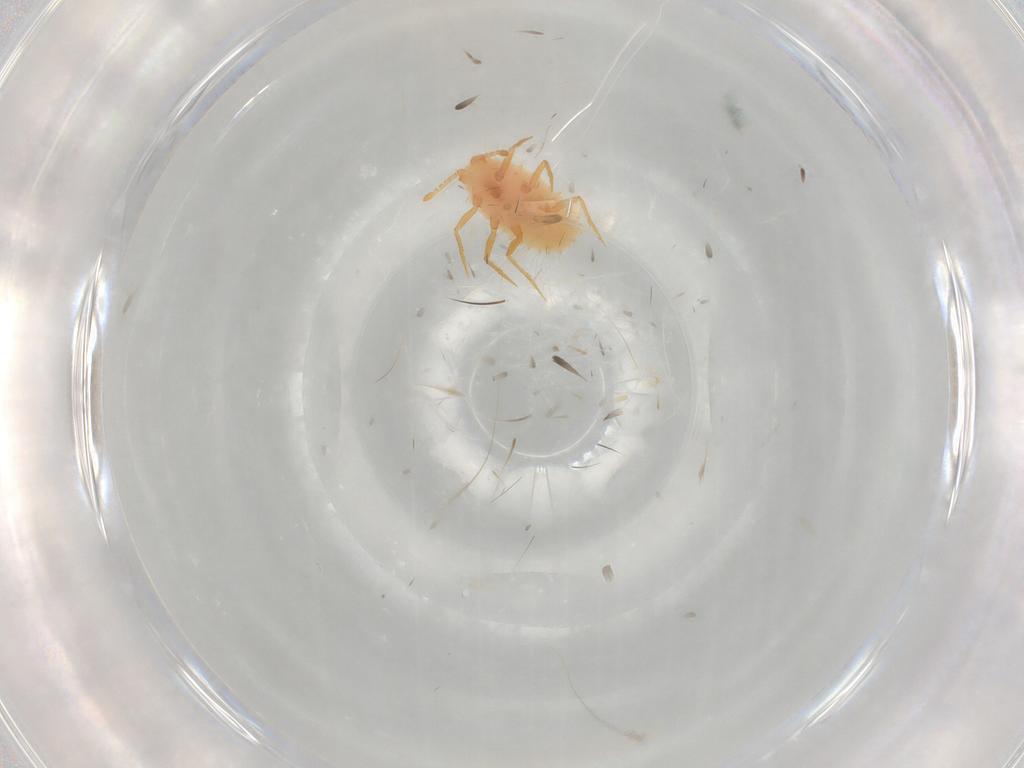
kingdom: Animalia
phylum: Arthropoda
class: Insecta
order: Hemiptera
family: Cicadellidae
